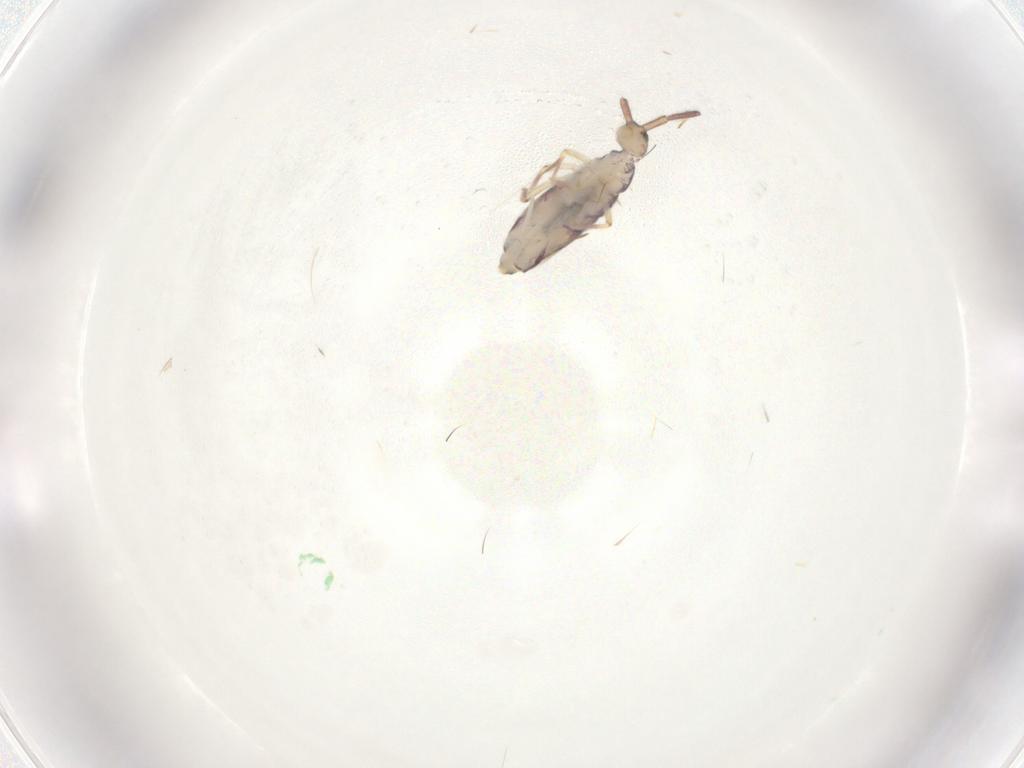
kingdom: Animalia
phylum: Arthropoda
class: Collembola
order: Entomobryomorpha
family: Entomobryidae
